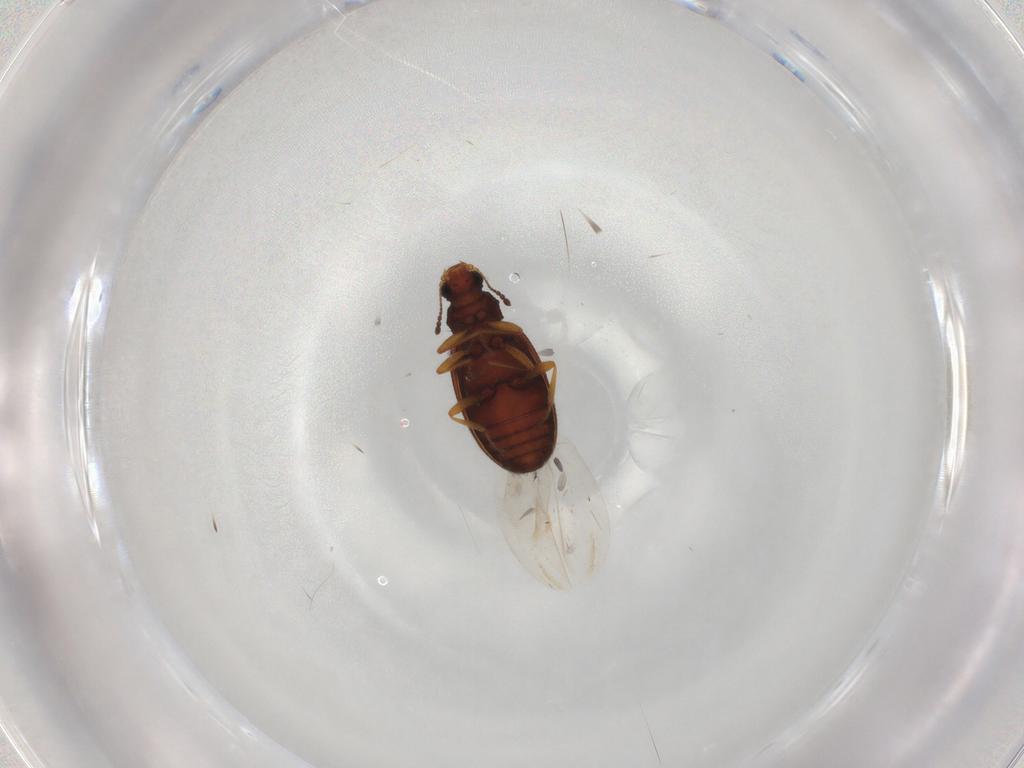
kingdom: Animalia
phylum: Arthropoda
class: Insecta
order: Coleoptera
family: Latridiidae
